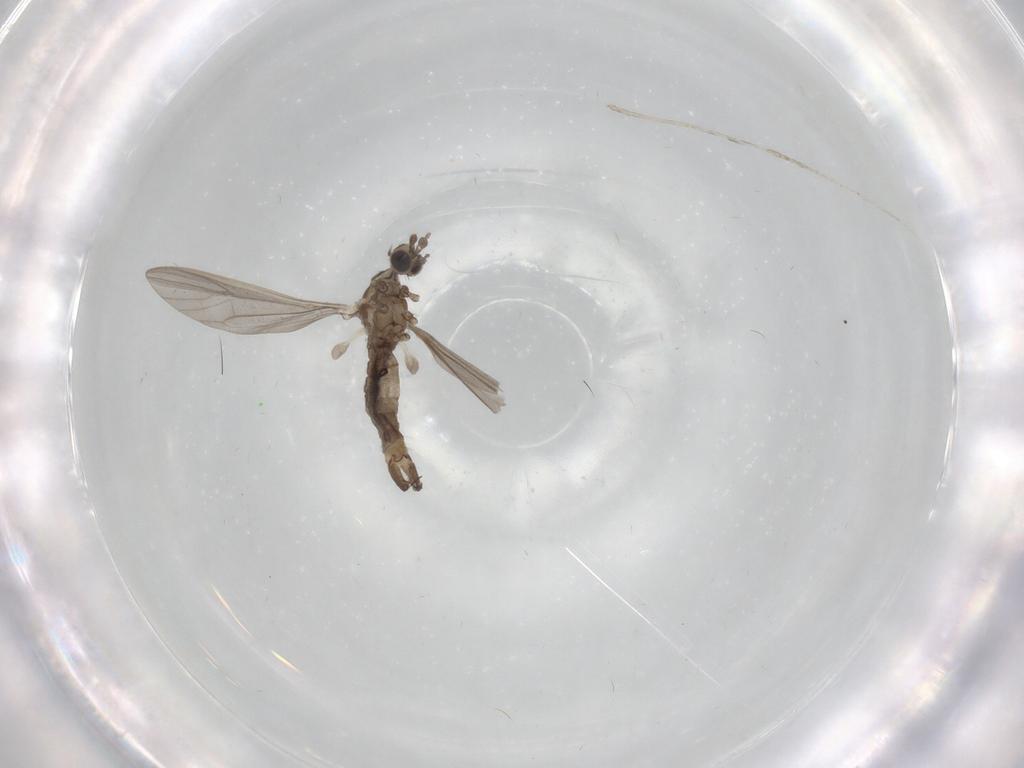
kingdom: Animalia
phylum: Arthropoda
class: Insecta
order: Diptera
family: Limoniidae
